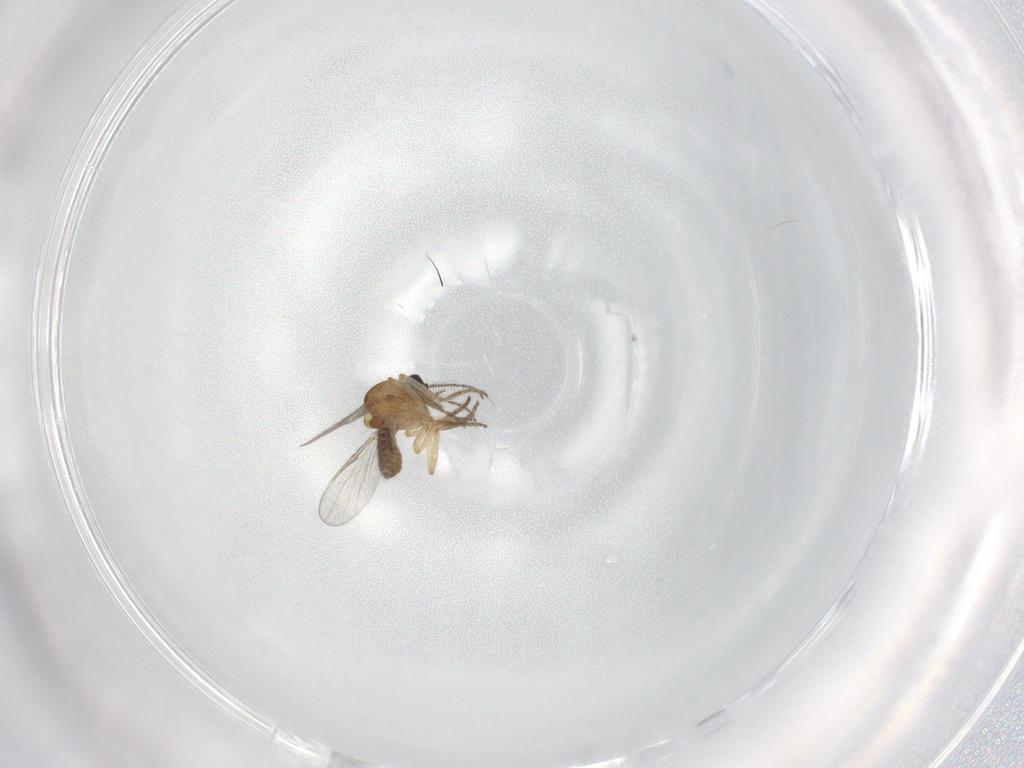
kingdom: Animalia
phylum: Arthropoda
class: Insecta
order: Diptera
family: Ceratopogonidae
